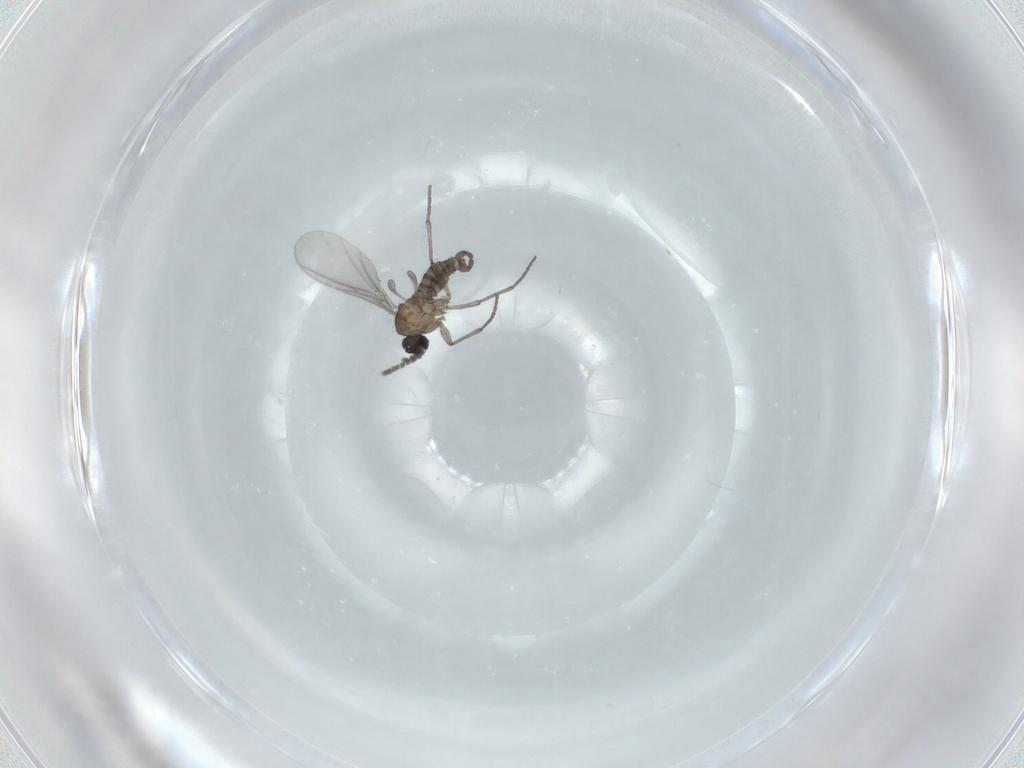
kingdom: Animalia
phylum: Arthropoda
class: Insecta
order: Diptera
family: Sciaridae
